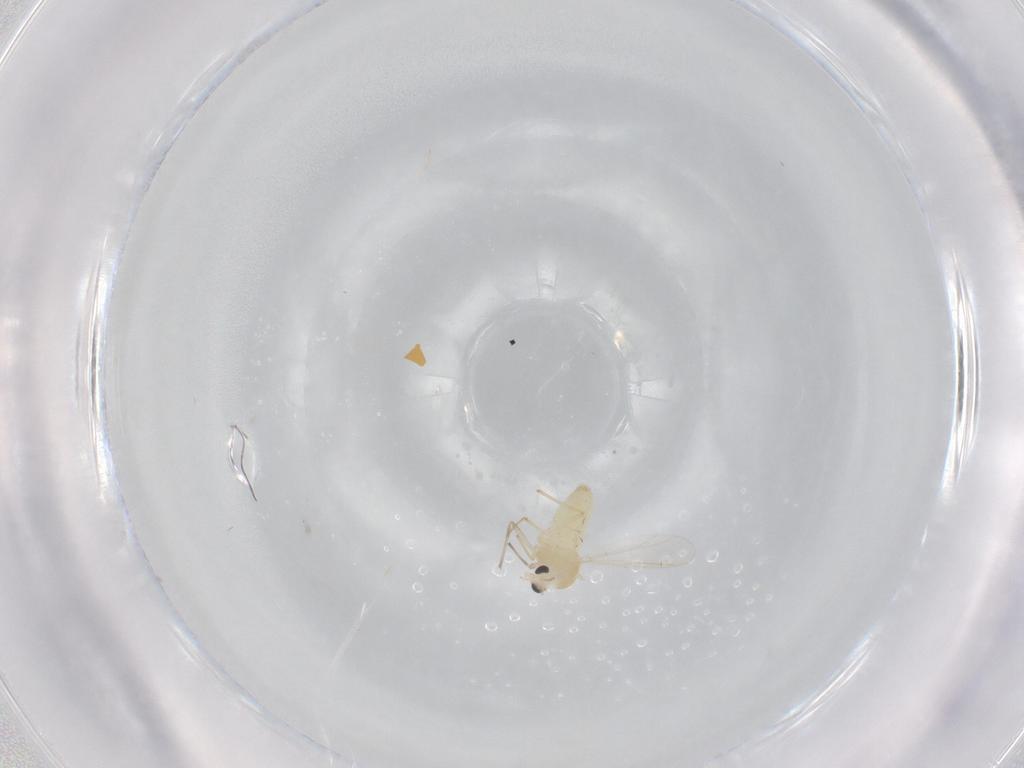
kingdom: Animalia
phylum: Arthropoda
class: Insecta
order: Diptera
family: Chironomidae
